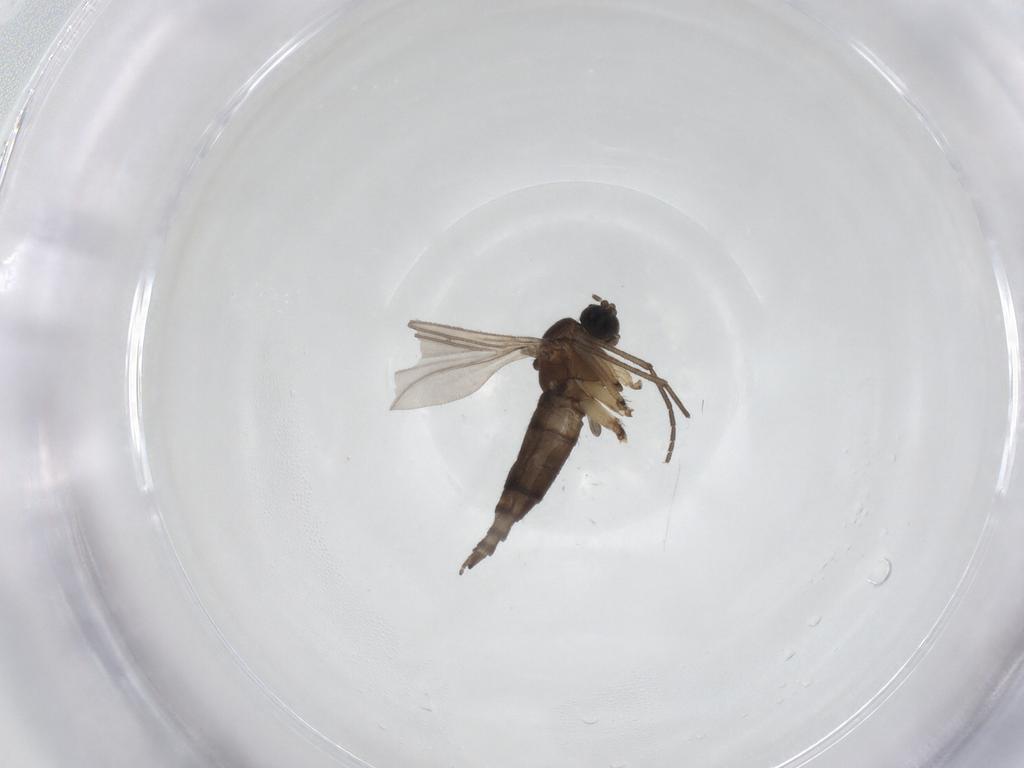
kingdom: Animalia
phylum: Arthropoda
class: Insecta
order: Diptera
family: Sciaridae
